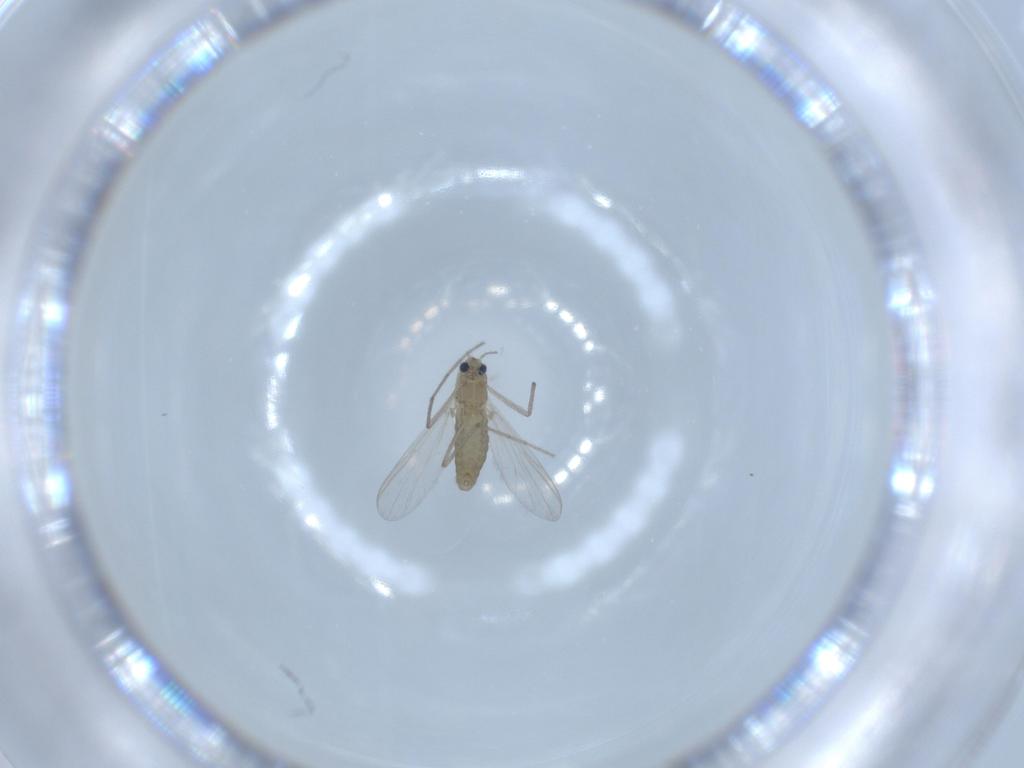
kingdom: Animalia
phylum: Arthropoda
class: Insecta
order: Diptera
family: Chironomidae
